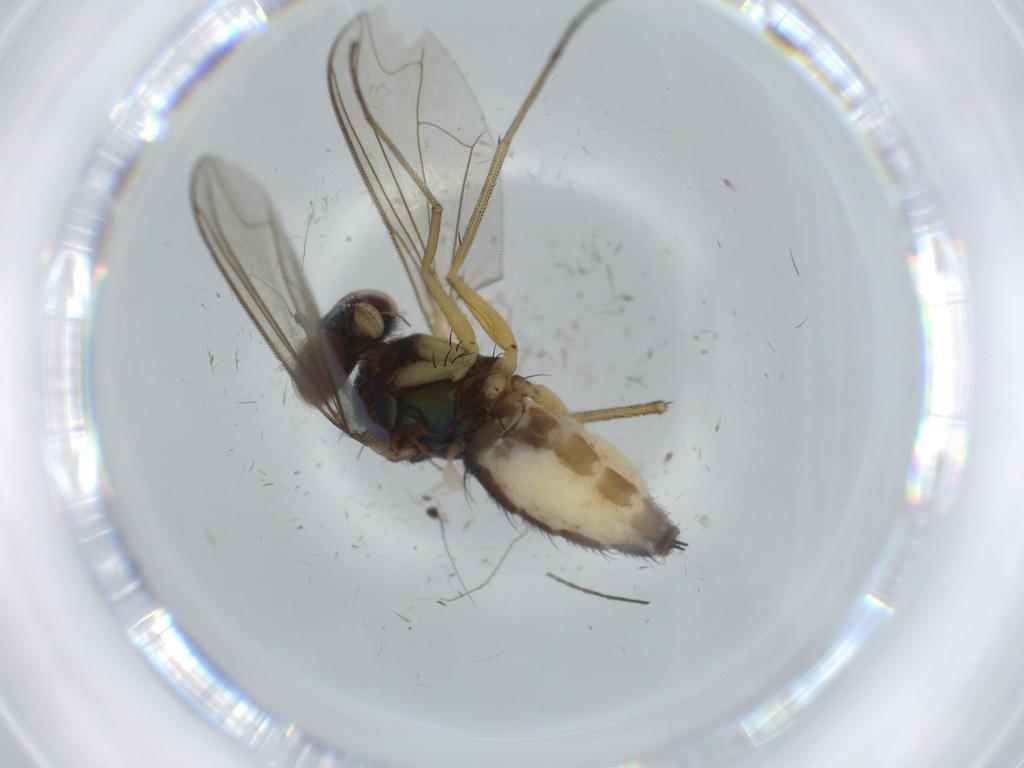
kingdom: Animalia
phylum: Arthropoda
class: Insecta
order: Diptera
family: Dolichopodidae
